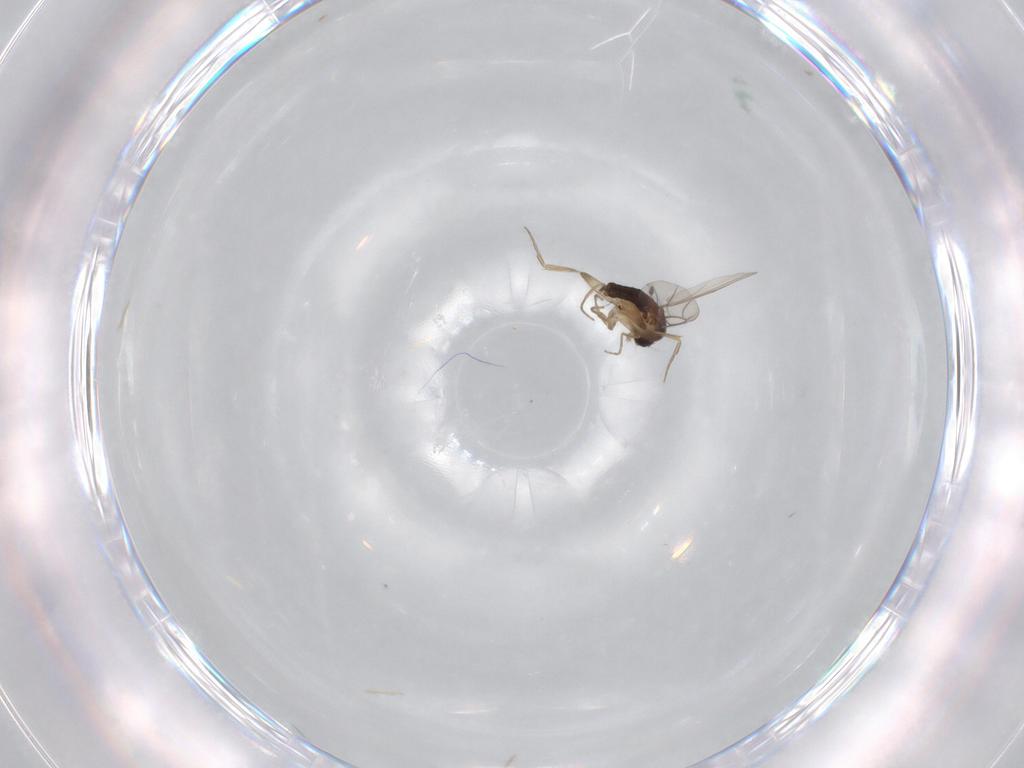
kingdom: Animalia
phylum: Arthropoda
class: Insecta
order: Diptera
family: Phoridae
